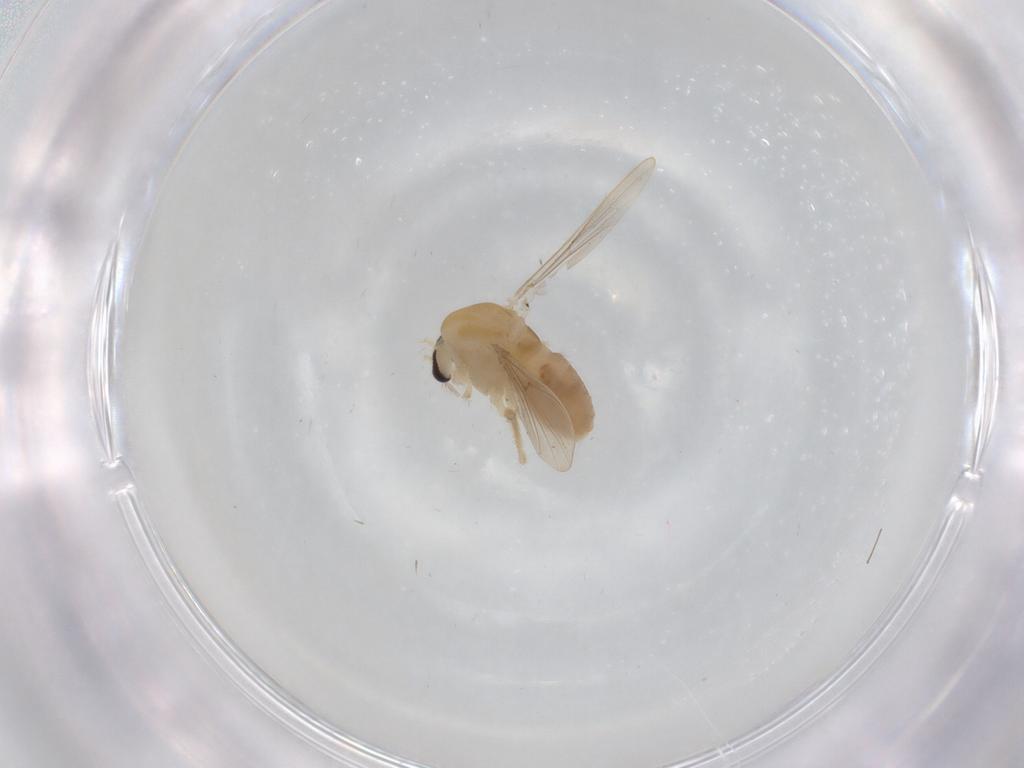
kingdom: Animalia
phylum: Arthropoda
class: Insecta
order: Diptera
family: Chironomidae
